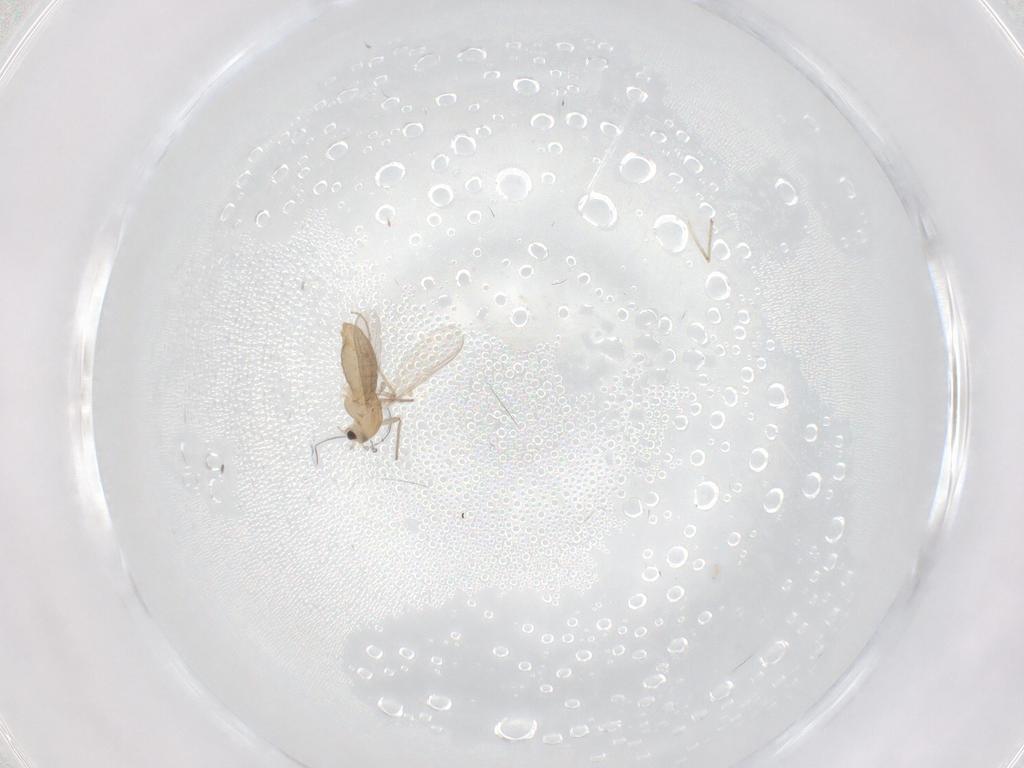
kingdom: Animalia
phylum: Arthropoda
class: Insecta
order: Diptera
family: Chironomidae
